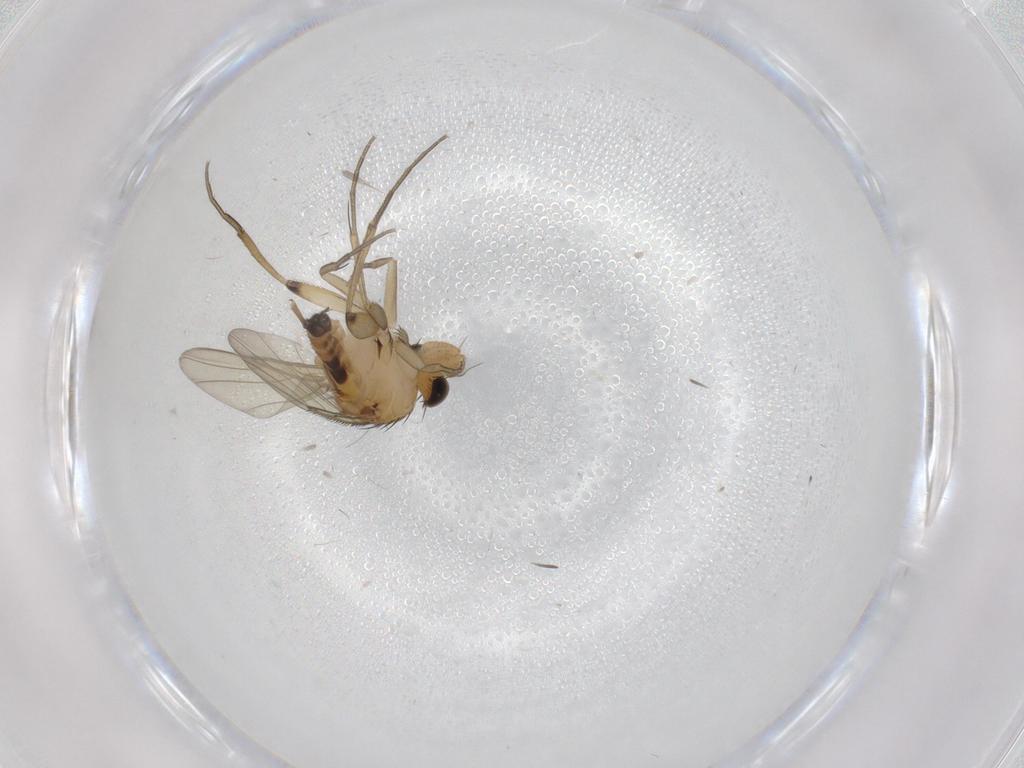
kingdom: Animalia
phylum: Arthropoda
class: Insecta
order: Diptera
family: Phoridae
